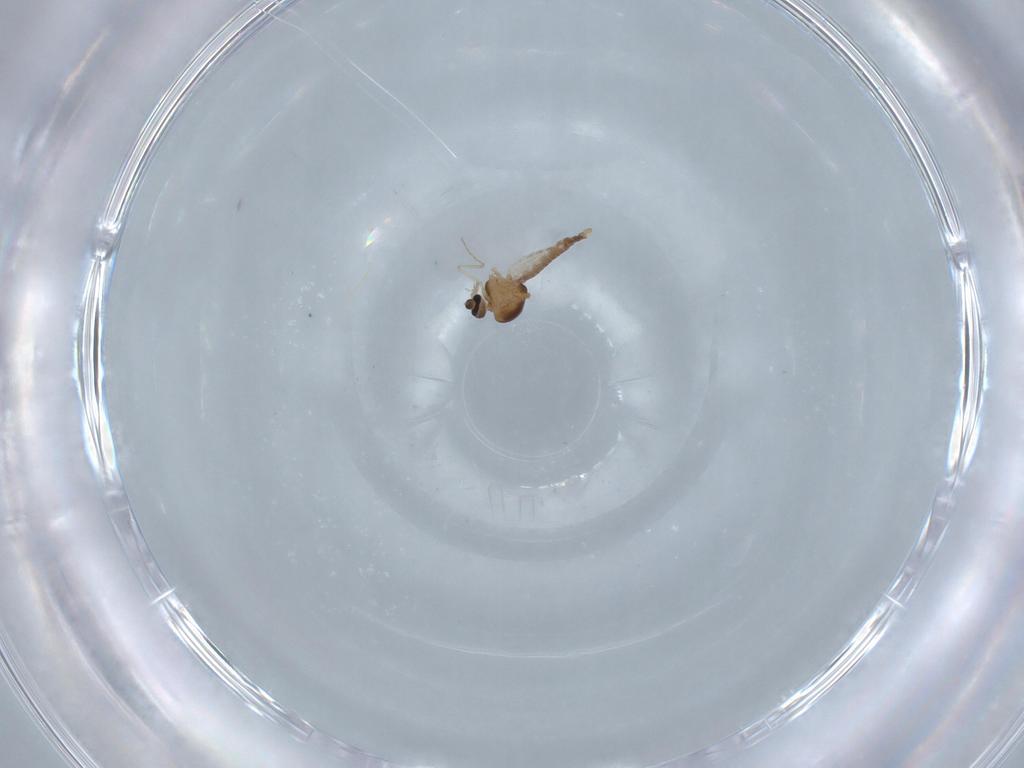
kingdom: Animalia
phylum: Arthropoda
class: Insecta
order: Diptera
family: Ceratopogonidae
